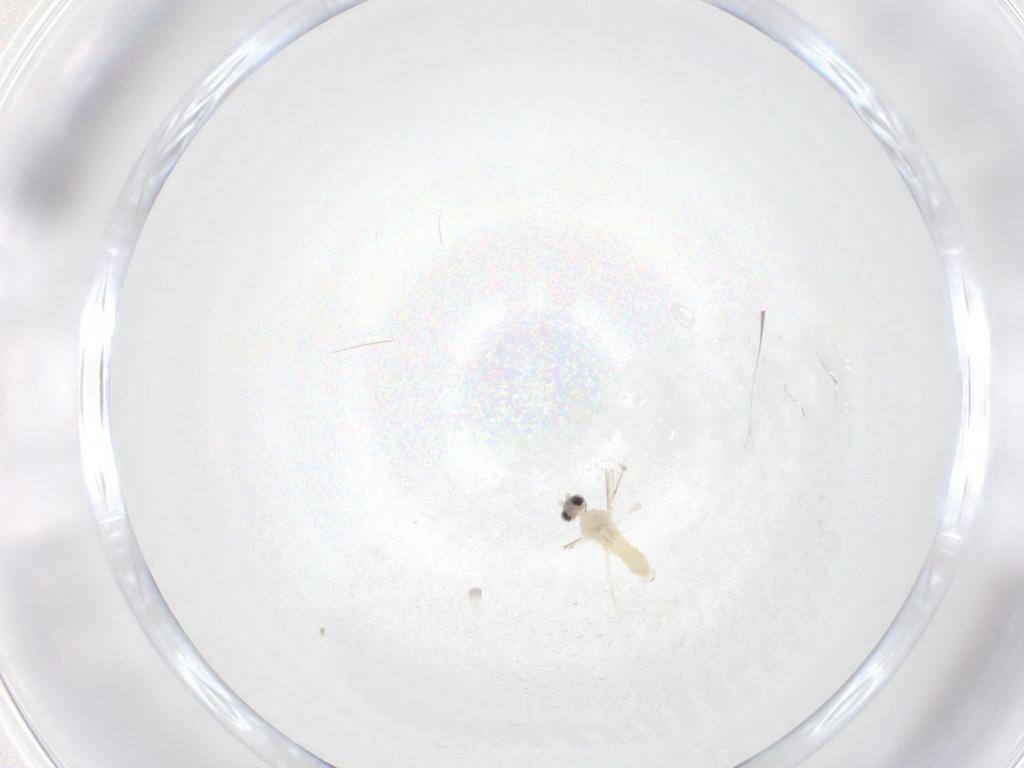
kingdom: Animalia
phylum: Arthropoda
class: Insecta
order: Diptera
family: Cecidomyiidae
